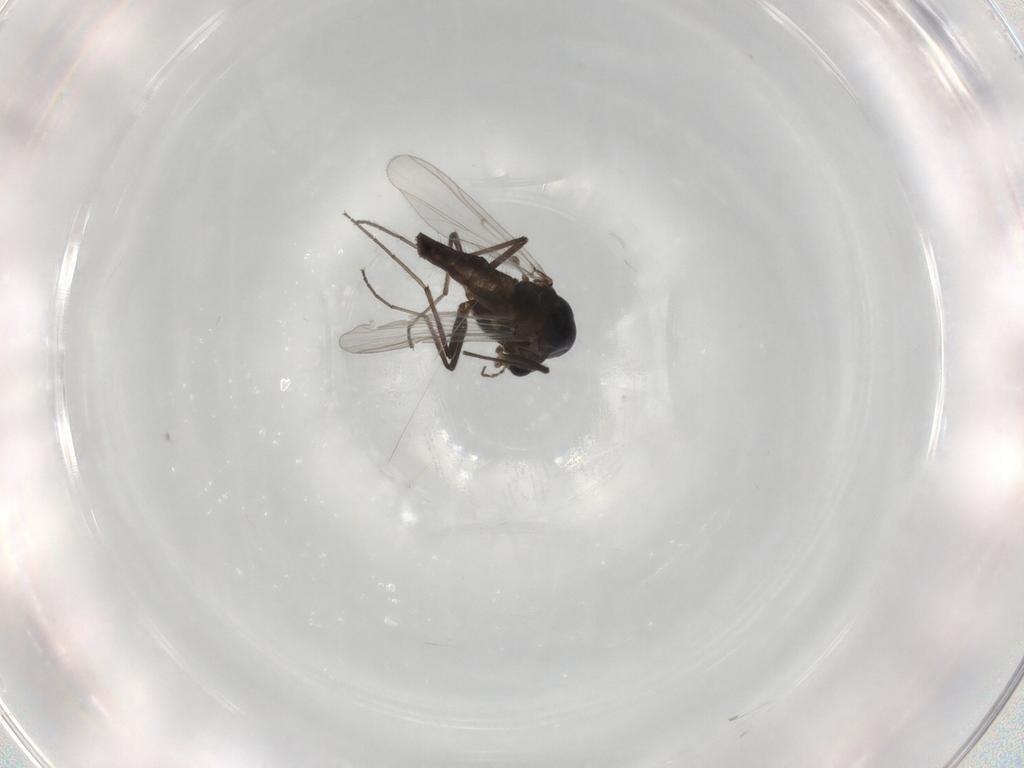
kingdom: Animalia
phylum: Arthropoda
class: Insecta
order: Diptera
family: Chironomidae
